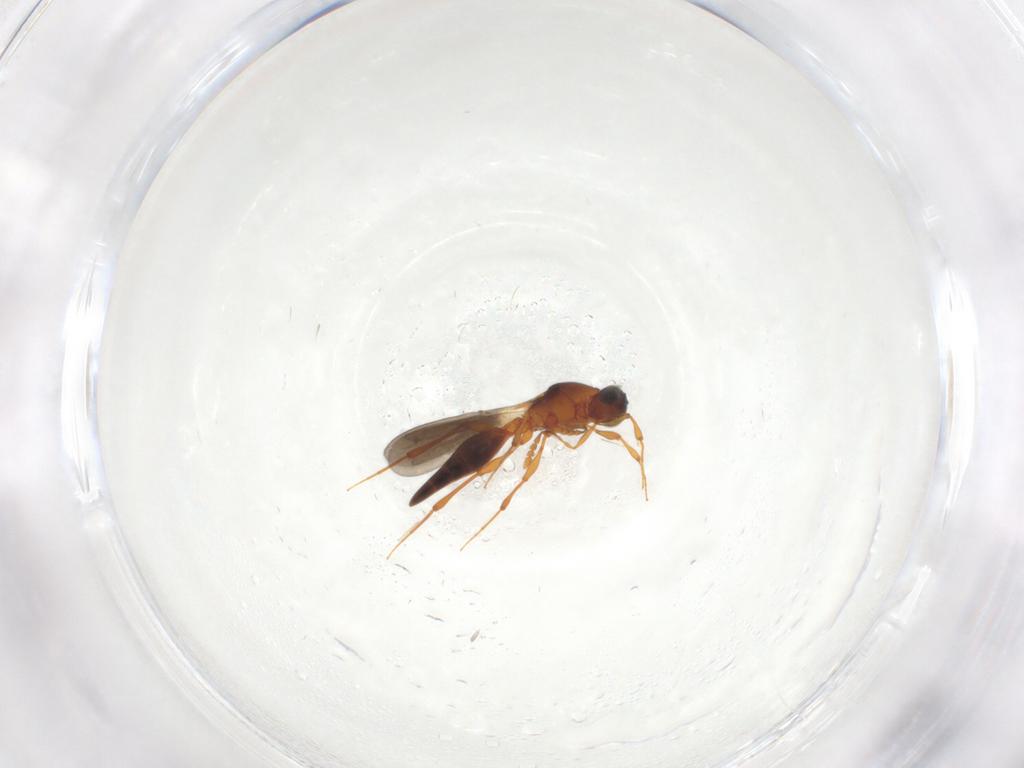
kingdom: Animalia
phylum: Arthropoda
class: Insecta
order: Hymenoptera
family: Platygastridae
